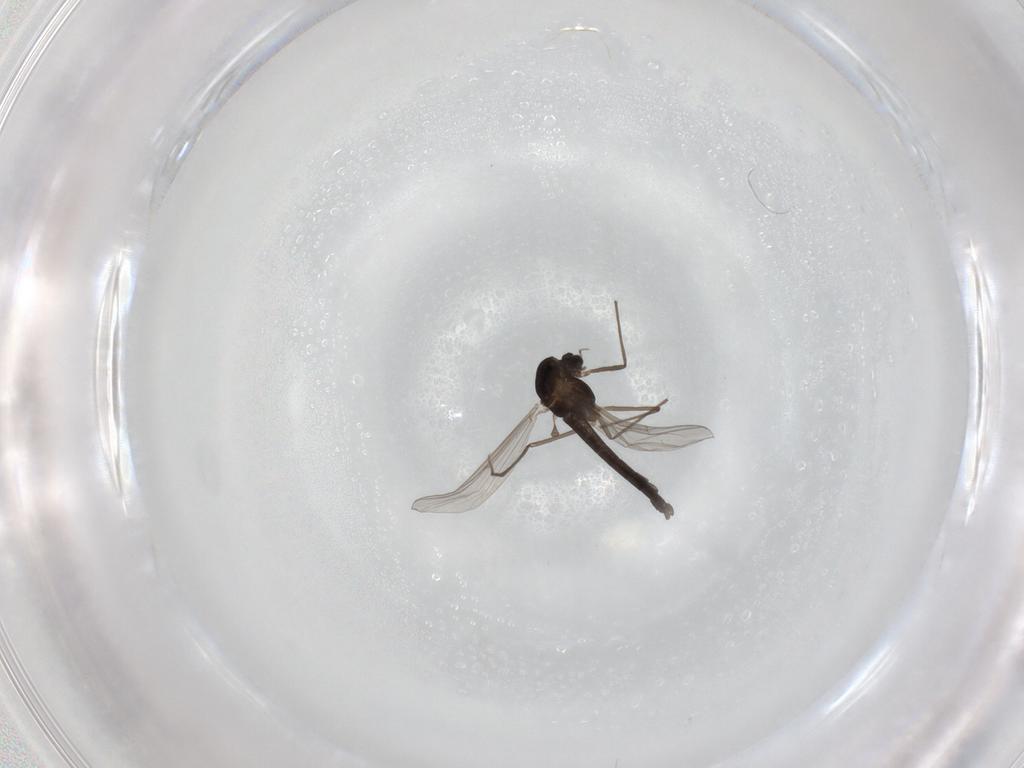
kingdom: Animalia
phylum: Arthropoda
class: Insecta
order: Diptera
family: Chironomidae
